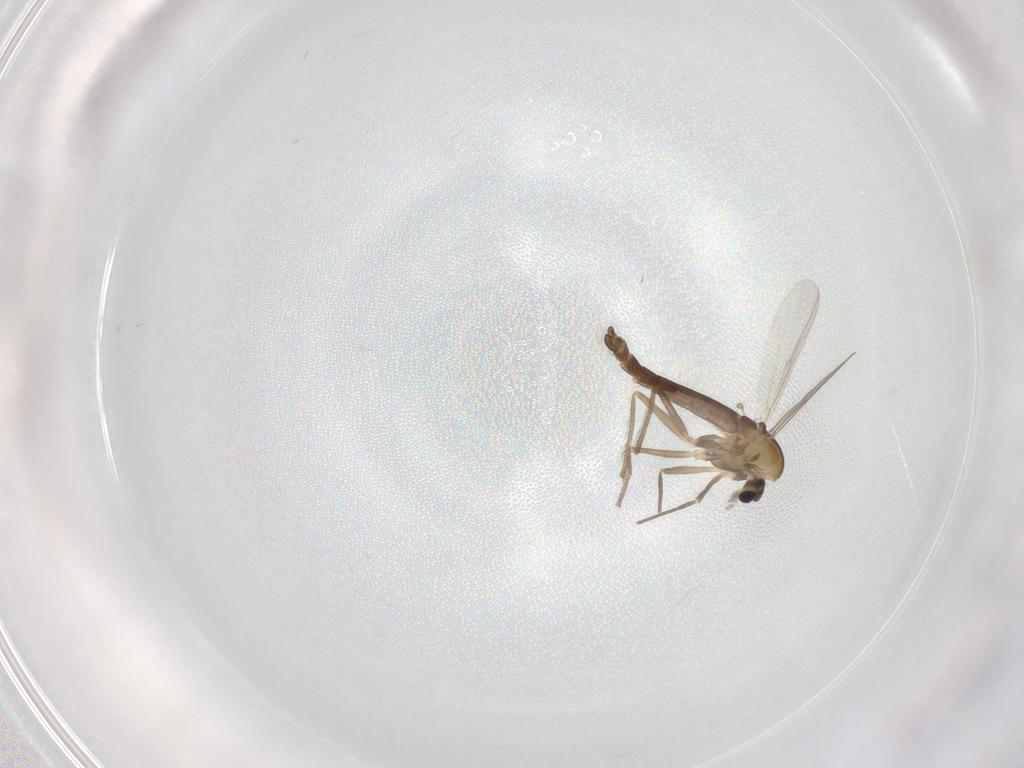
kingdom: Animalia
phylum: Arthropoda
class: Insecta
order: Diptera
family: Chironomidae
